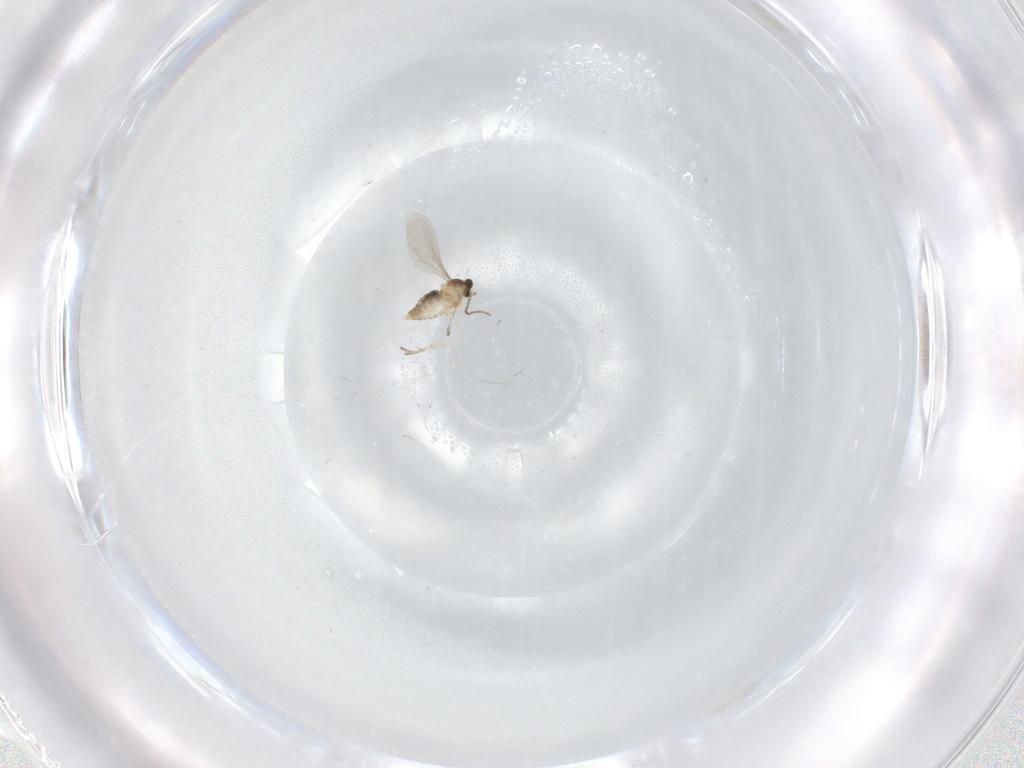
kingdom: Animalia
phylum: Arthropoda
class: Insecta
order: Diptera
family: Cecidomyiidae
